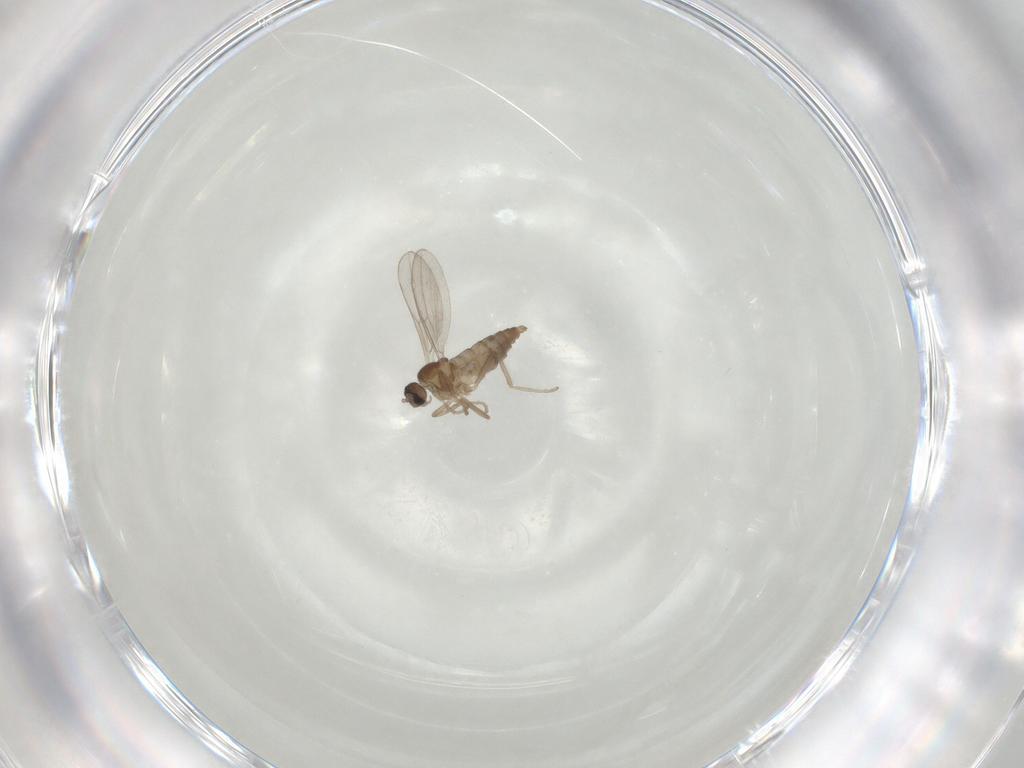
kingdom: Animalia
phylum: Arthropoda
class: Insecta
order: Diptera
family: Cecidomyiidae
